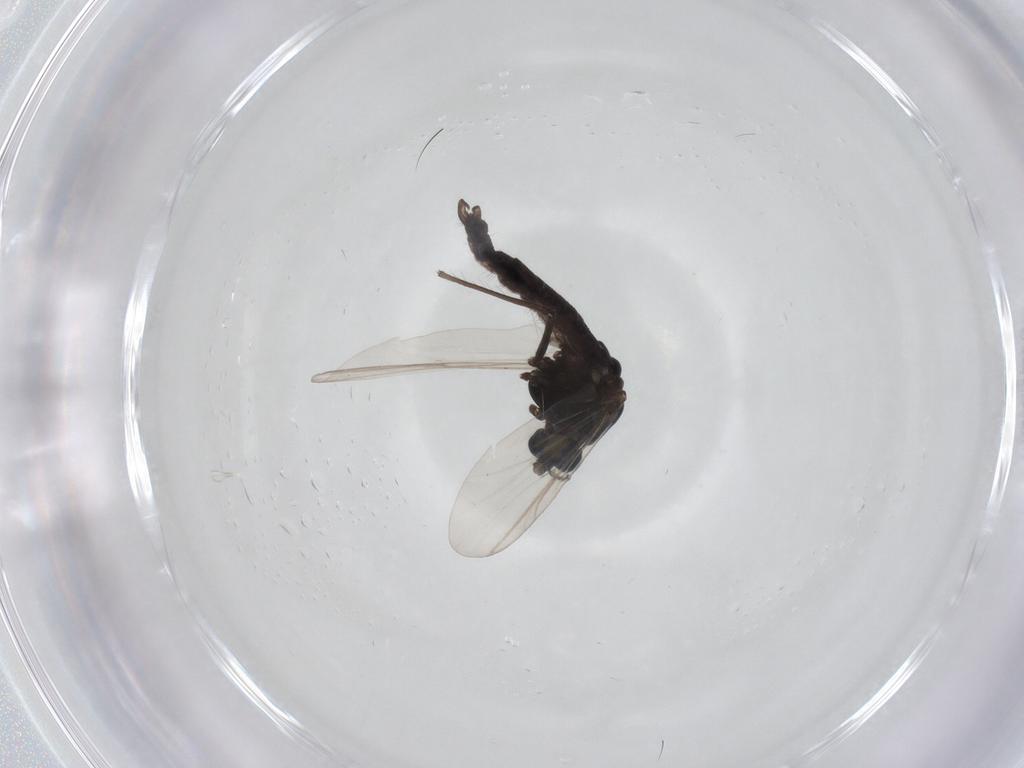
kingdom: Animalia
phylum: Arthropoda
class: Insecta
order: Diptera
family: Chironomidae
